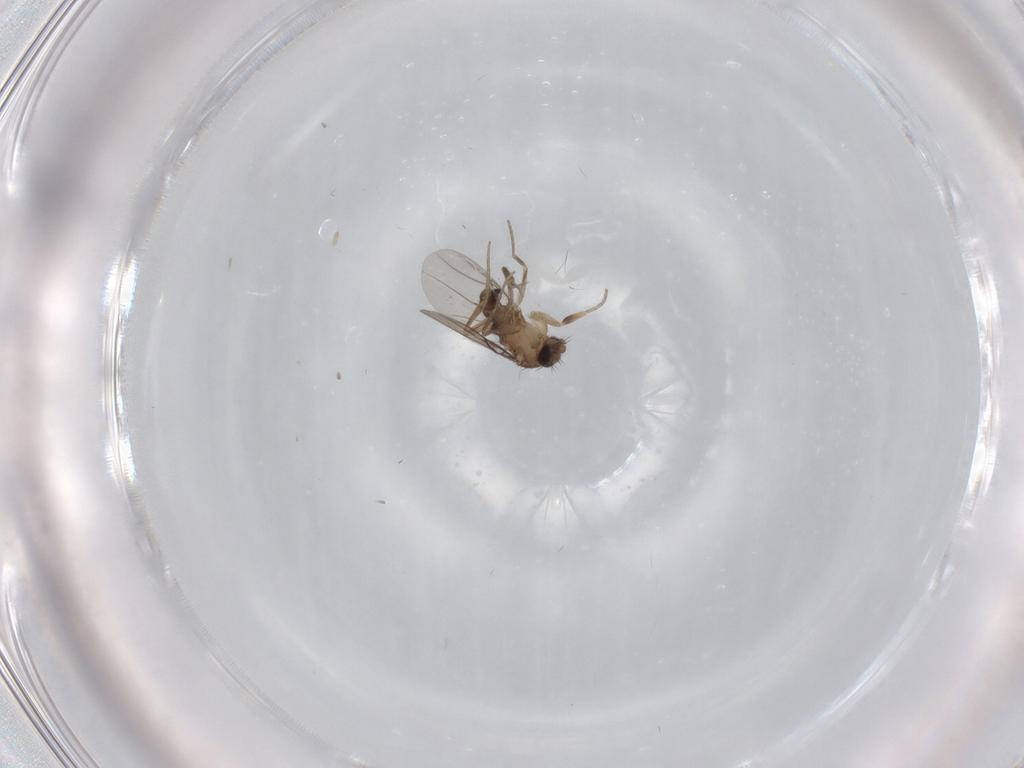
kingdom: Animalia
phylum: Arthropoda
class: Insecta
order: Diptera
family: Phoridae
